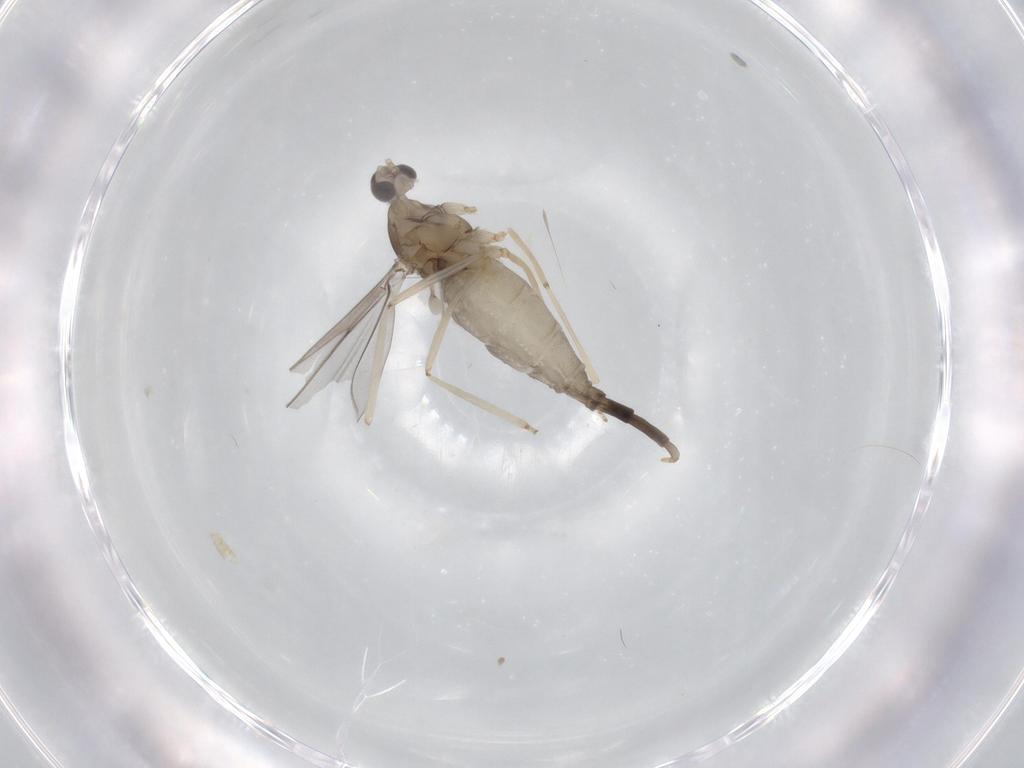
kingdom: Animalia
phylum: Arthropoda
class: Insecta
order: Diptera
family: Cecidomyiidae
